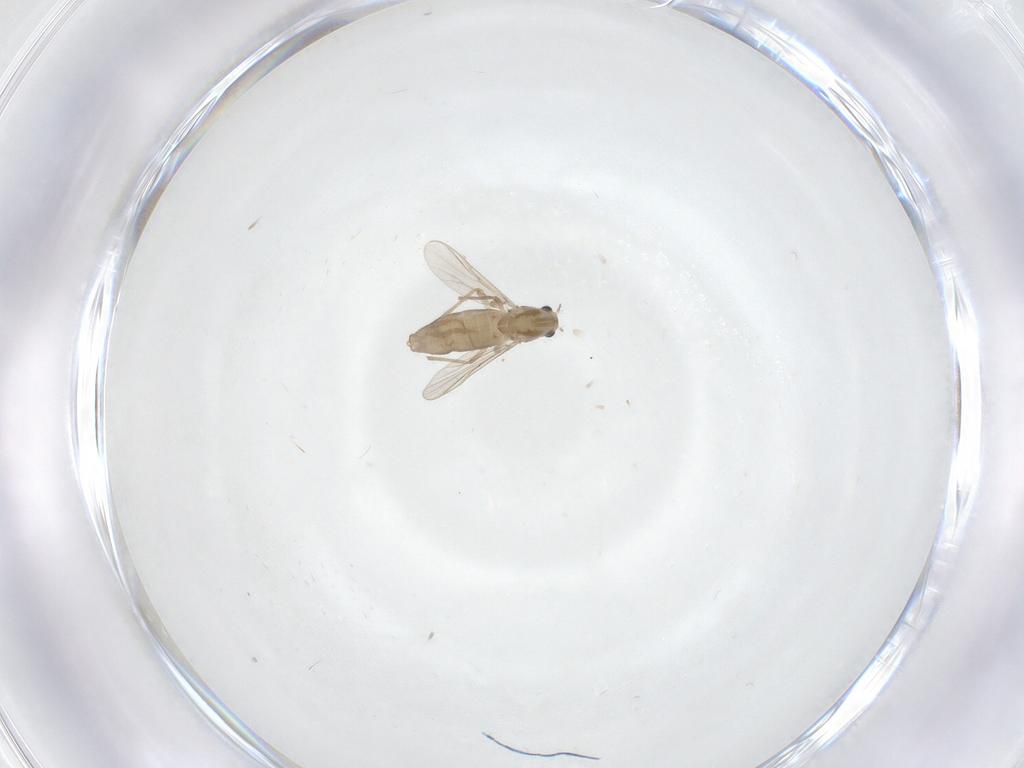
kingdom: Animalia
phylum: Arthropoda
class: Insecta
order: Diptera
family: Chironomidae
